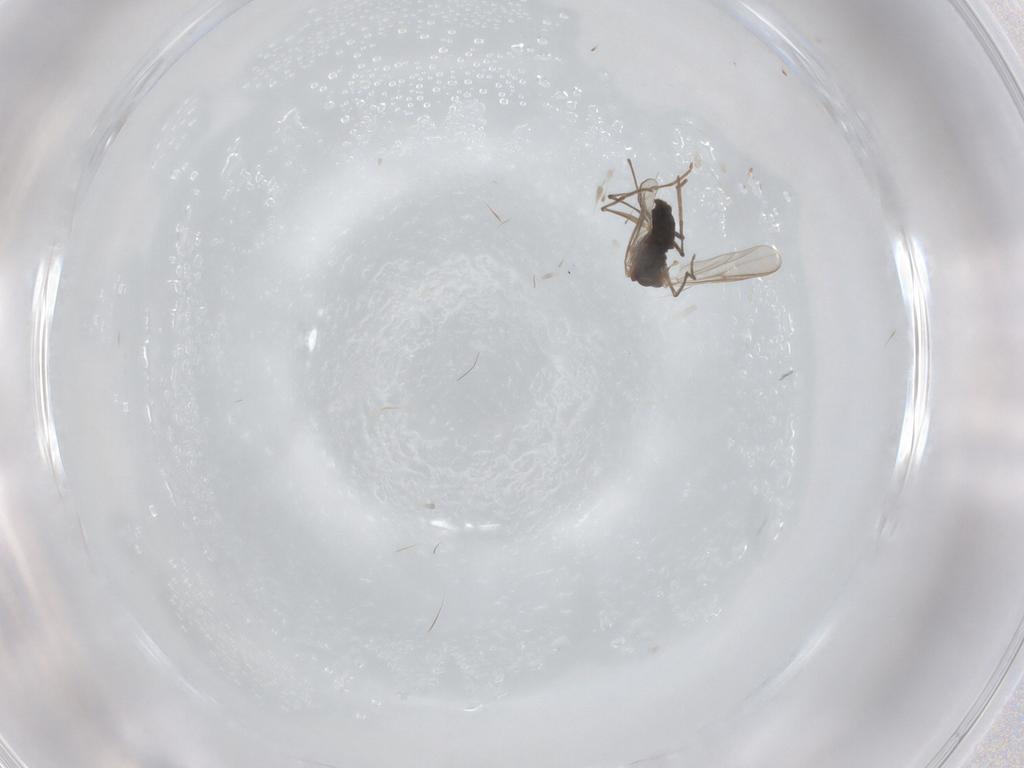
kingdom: Animalia
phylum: Arthropoda
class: Insecta
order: Diptera
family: Chironomidae
